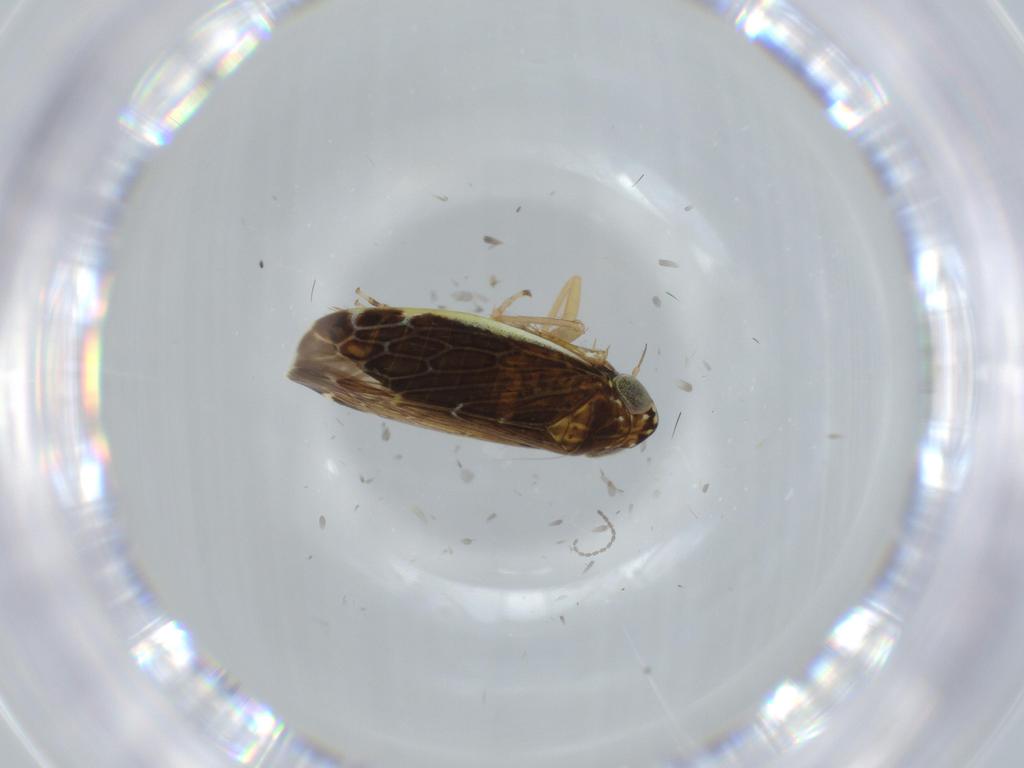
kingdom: Animalia
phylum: Arthropoda
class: Insecta
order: Hemiptera
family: Cicadellidae
